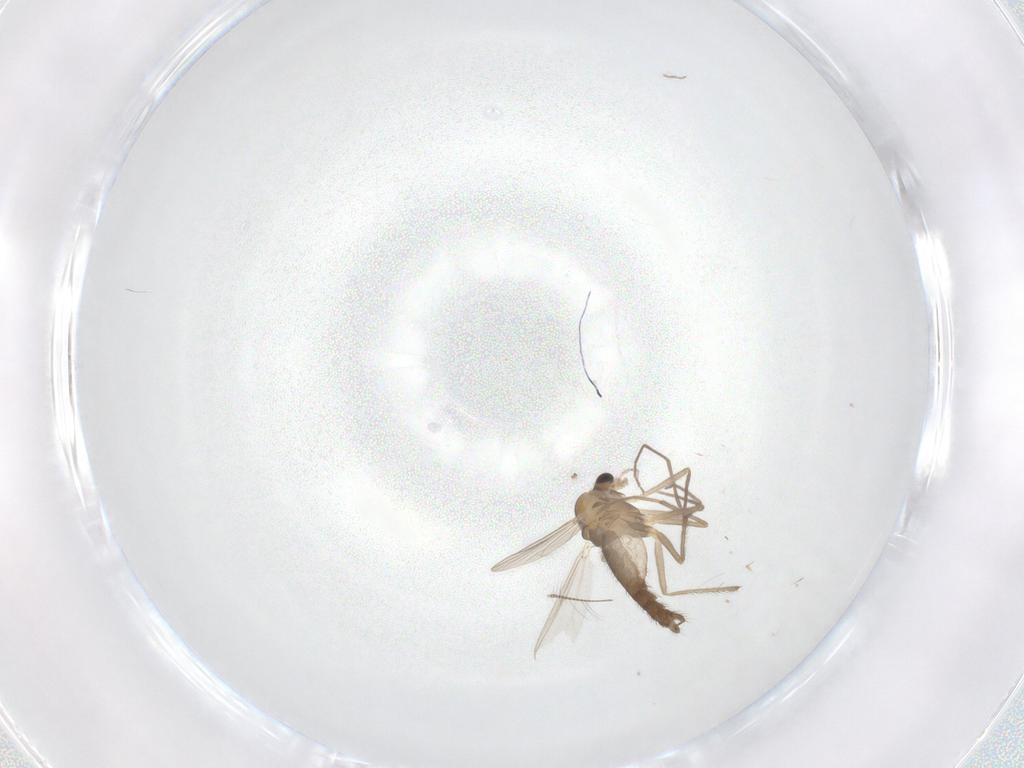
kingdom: Animalia
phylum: Arthropoda
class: Insecta
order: Diptera
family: Chironomidae
